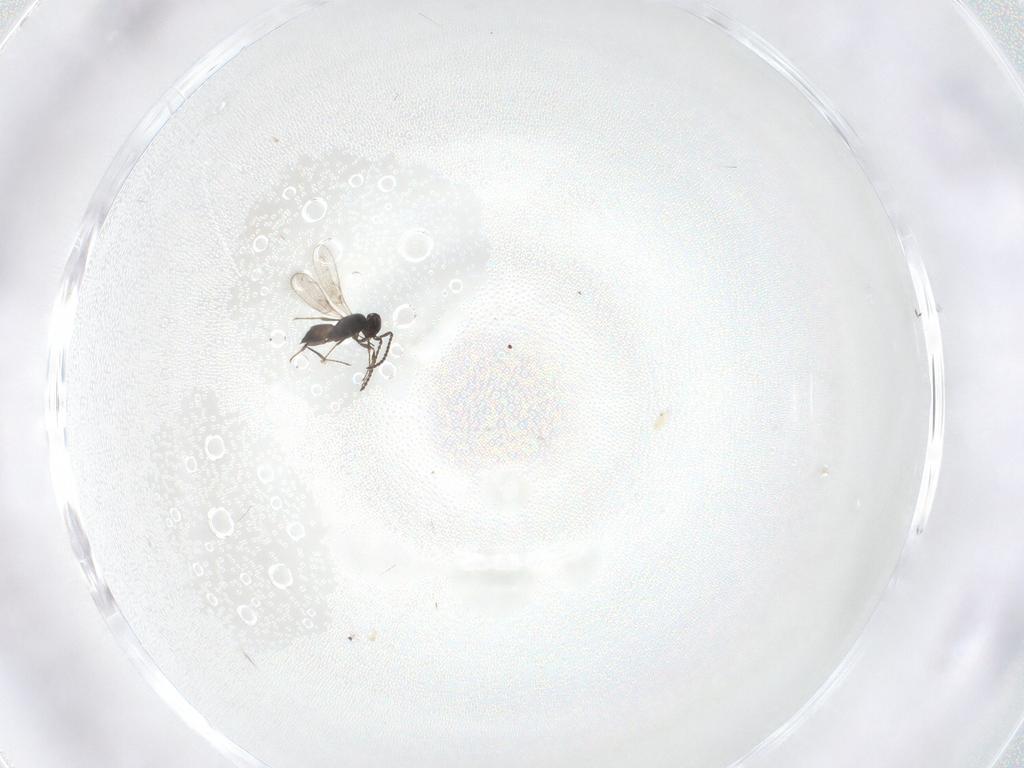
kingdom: Animalia
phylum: Arthropoda
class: Insecta
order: Hymenoptera
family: Scelionidae
